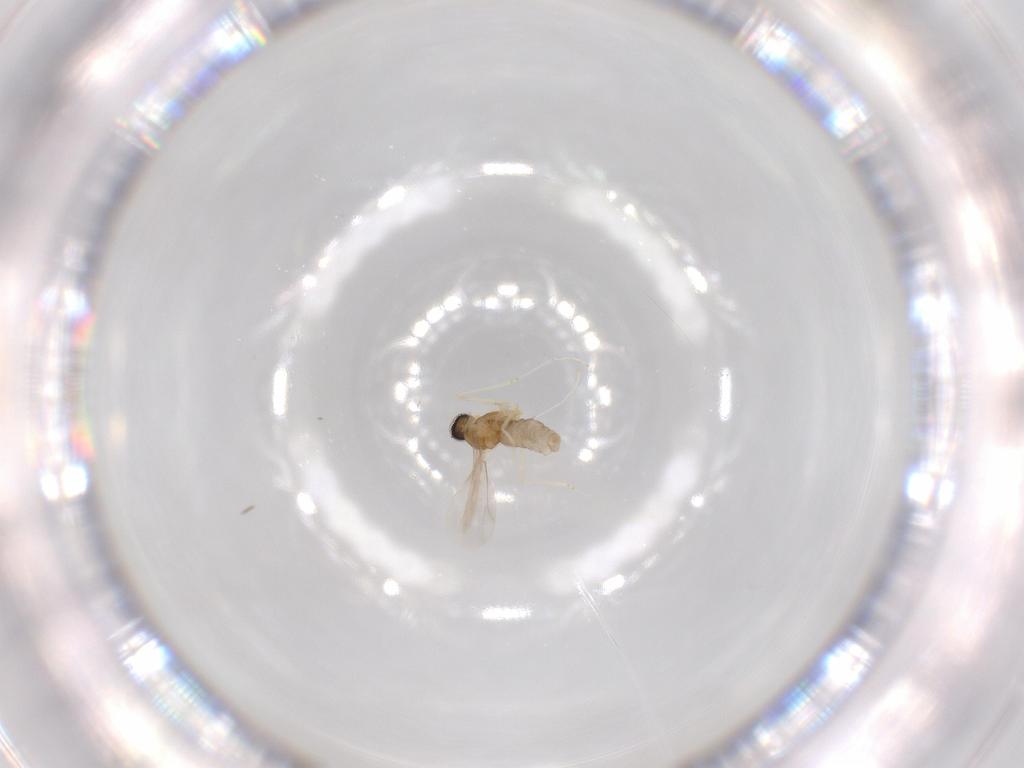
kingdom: Animalia
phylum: Arthropoda
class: Insecta
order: Diptera
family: Cecidomyiidae
